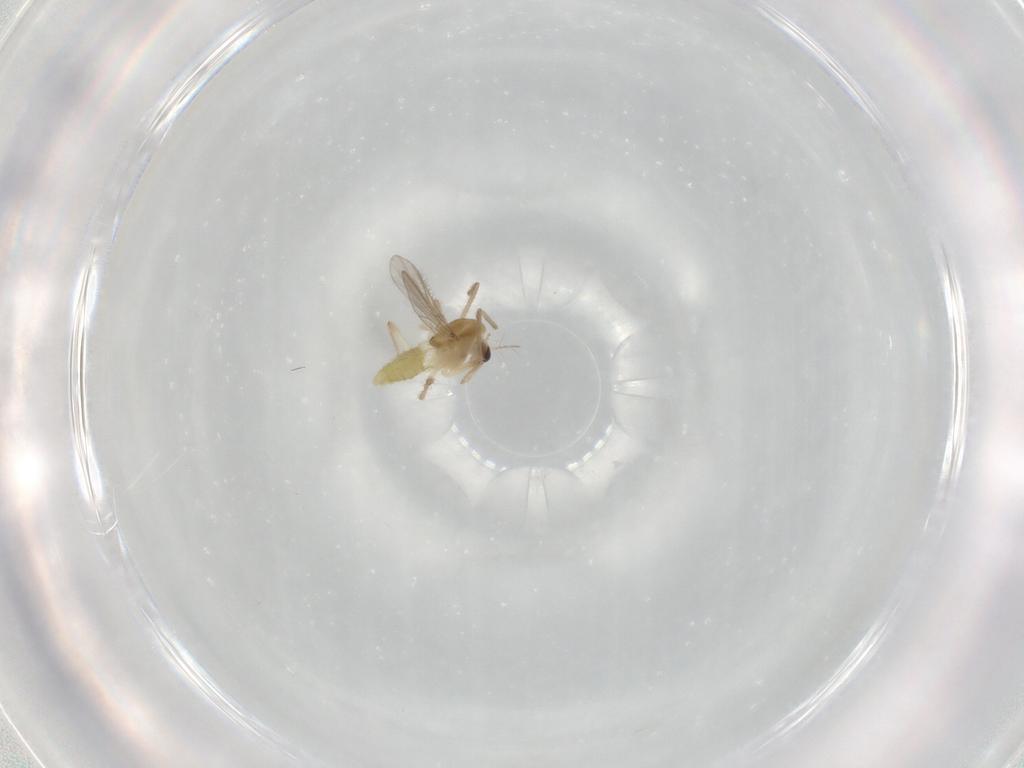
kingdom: Animalia
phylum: Arthropoda
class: Insecta
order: Diptera
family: Chironomidae
